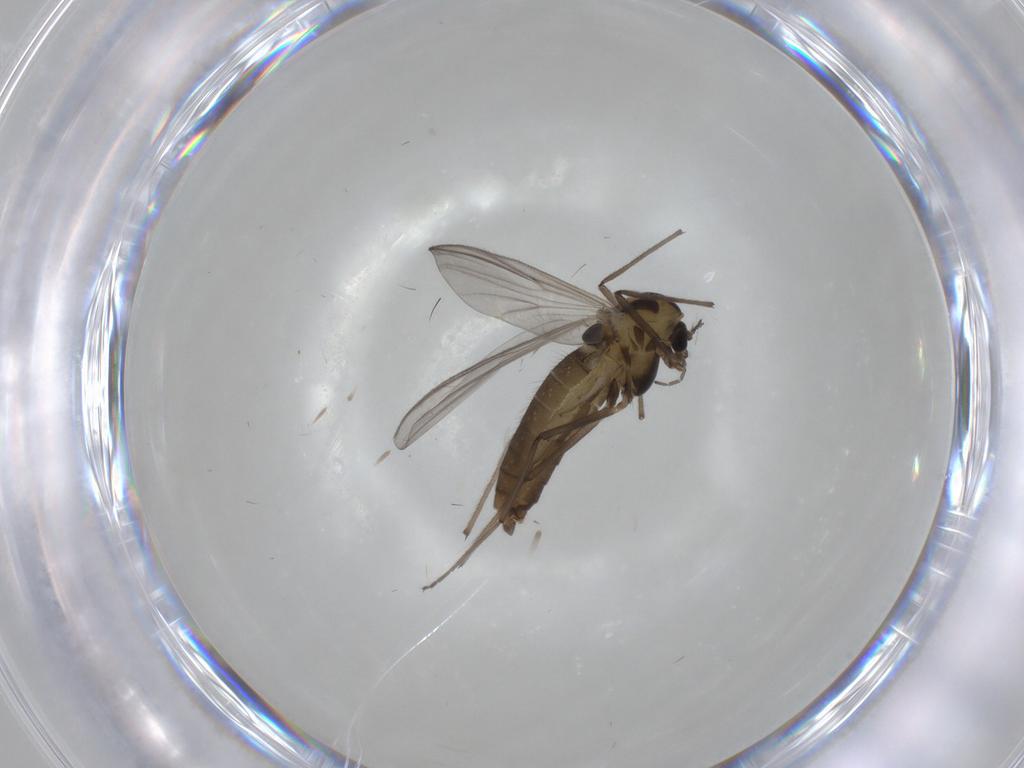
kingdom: Animalia
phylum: Arthropoda
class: Insecta
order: Diptera
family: Chironomidae
